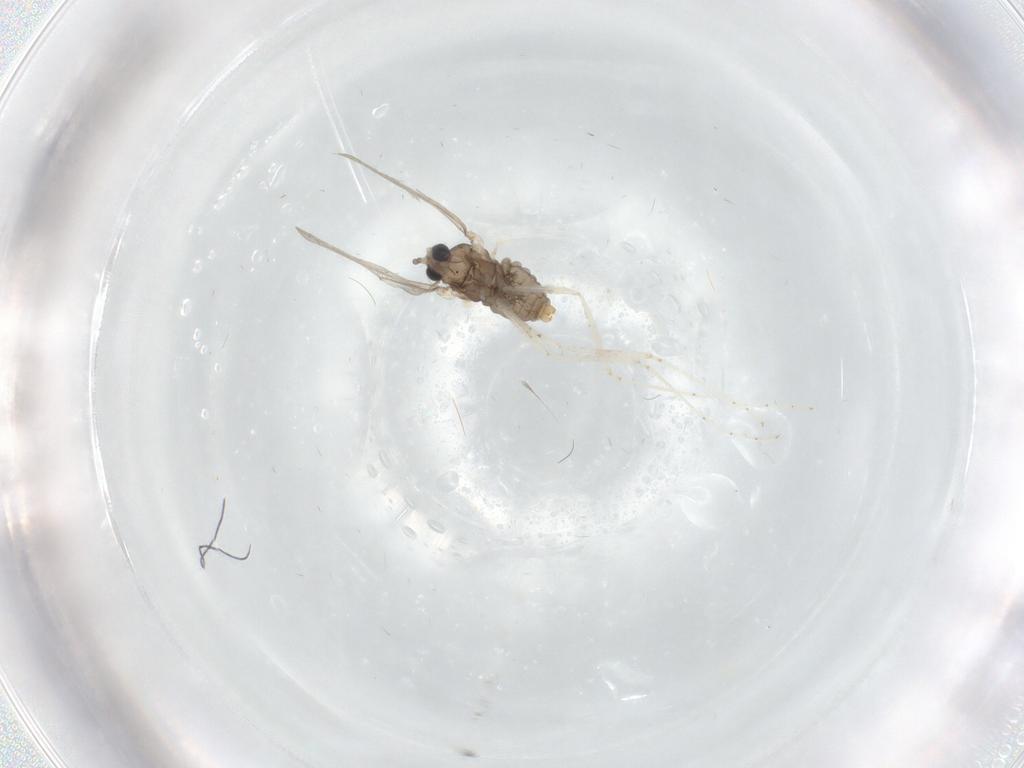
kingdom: Animalia
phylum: Arthropoda
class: Insecta
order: Diptera
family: Cecidomyiidae
